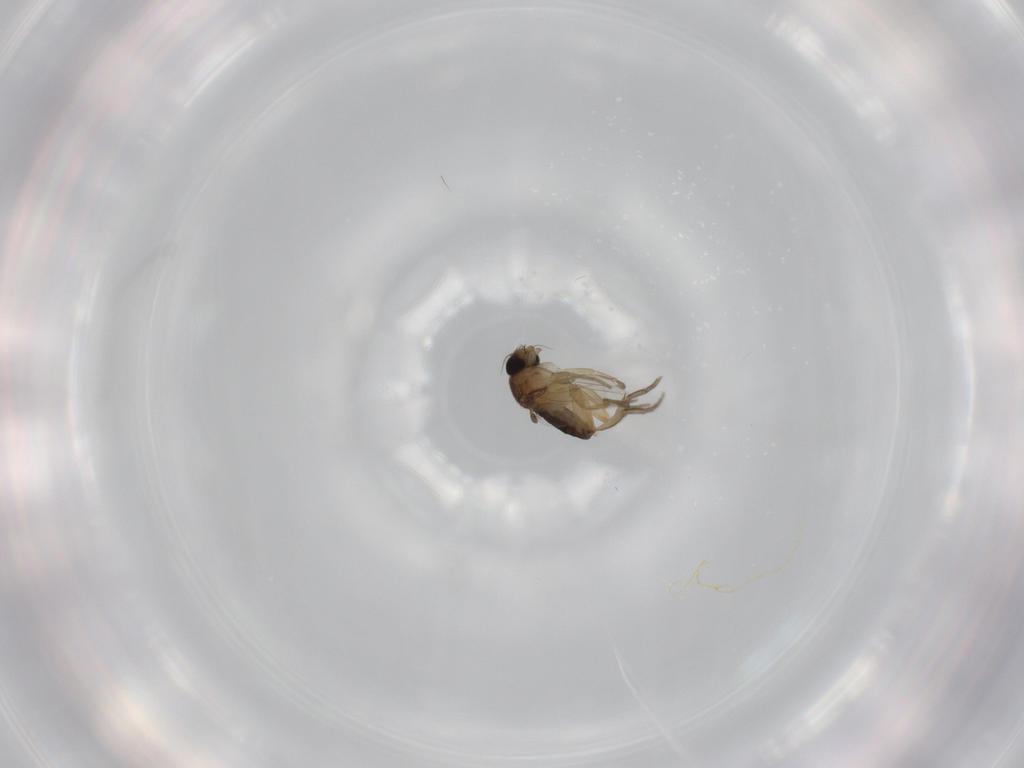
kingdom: Animalia
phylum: Arthropoda
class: Insecta
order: Diptera
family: Phoridae
